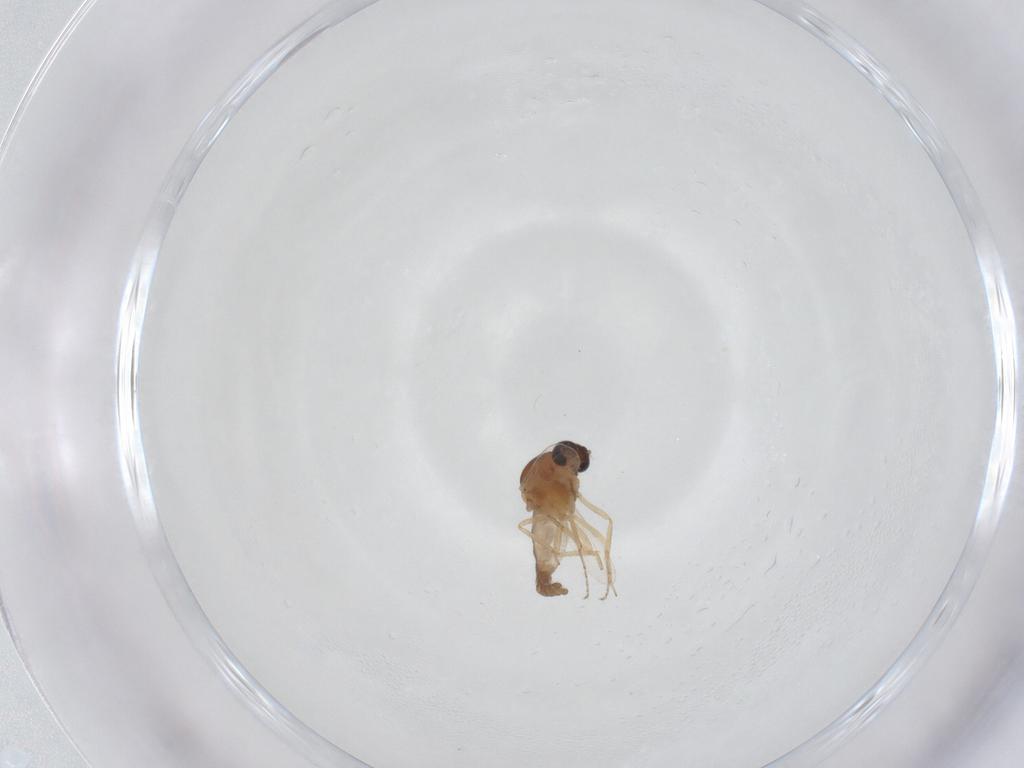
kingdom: Animalia
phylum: Arthropoda
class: Insecta
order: Diptera
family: Ceratopogonidae
